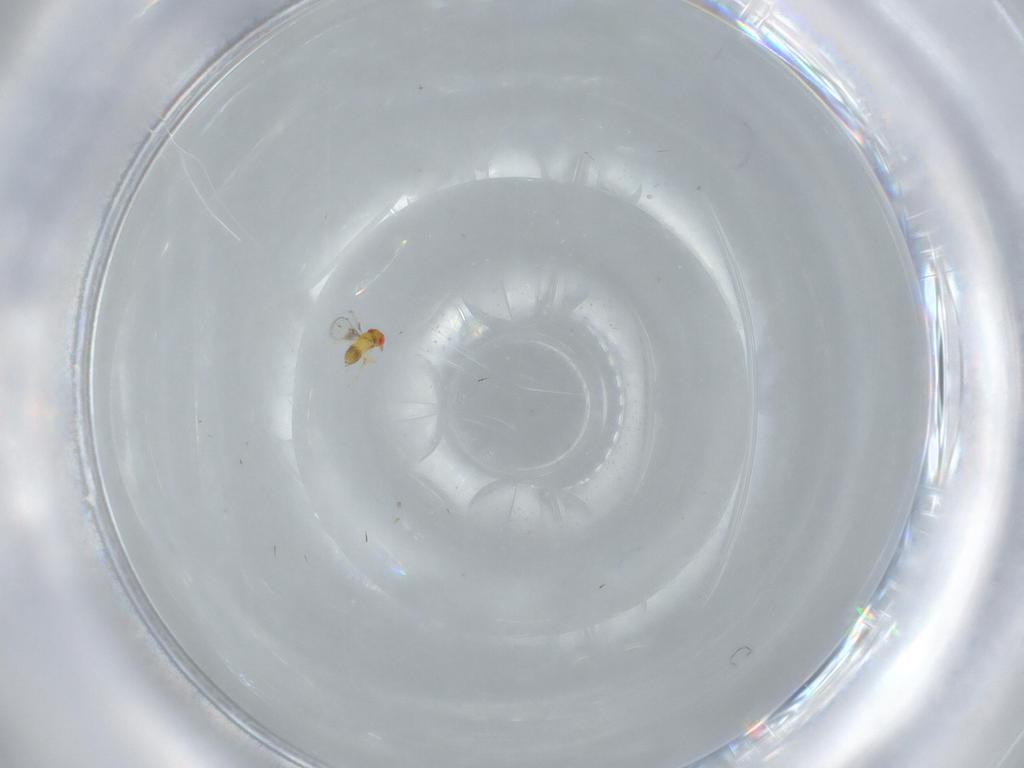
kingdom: Animalia
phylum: Arthropoda
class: Insecta
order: Hymenoptera
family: Trichogrammatidae
